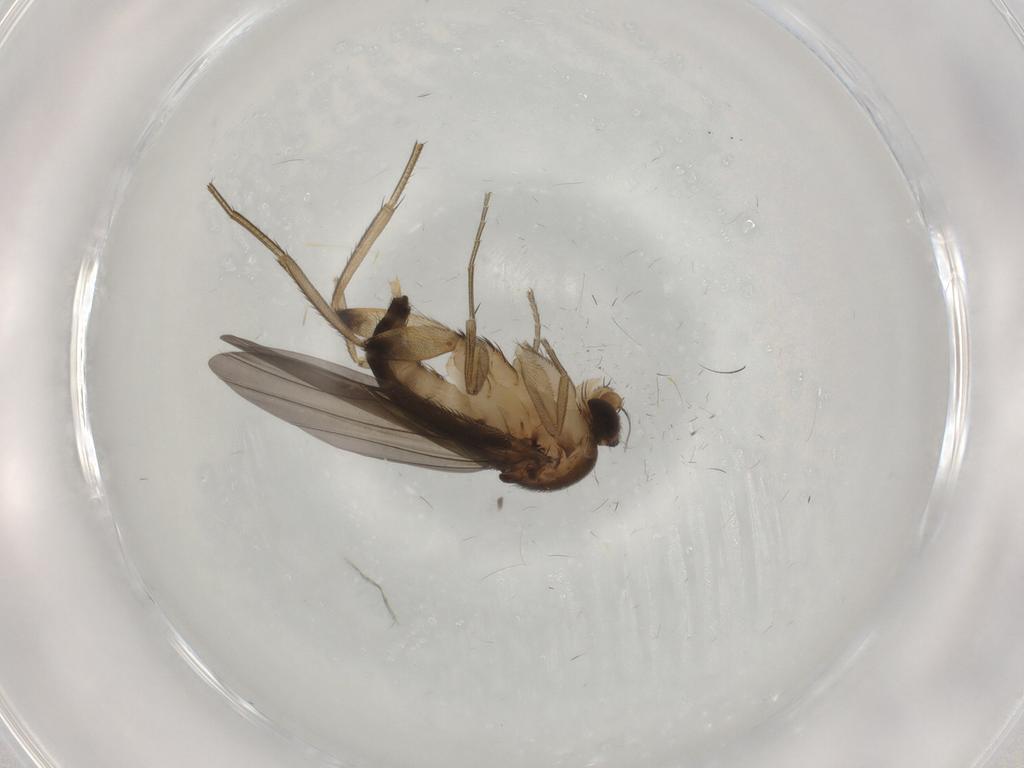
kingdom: Animalia
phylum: Arthropoda
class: Insecta
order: Diptera
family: Phoridae
